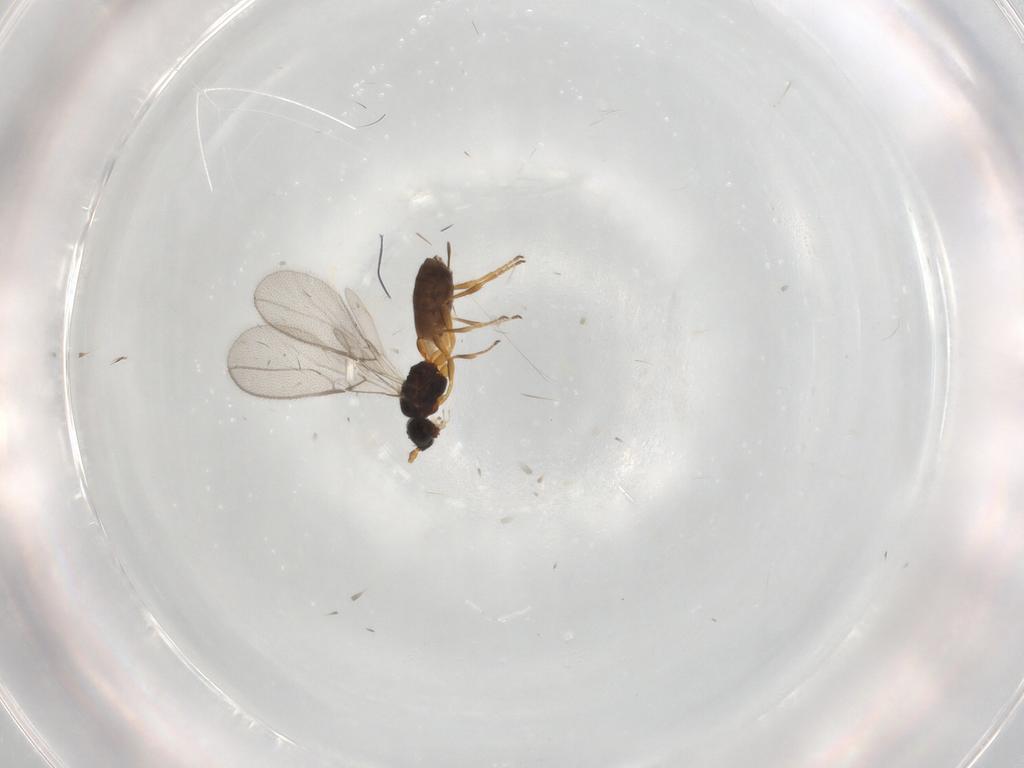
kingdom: Animalia
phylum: Arthropoda
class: Insecta
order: Hymenoptera
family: Braconidae
